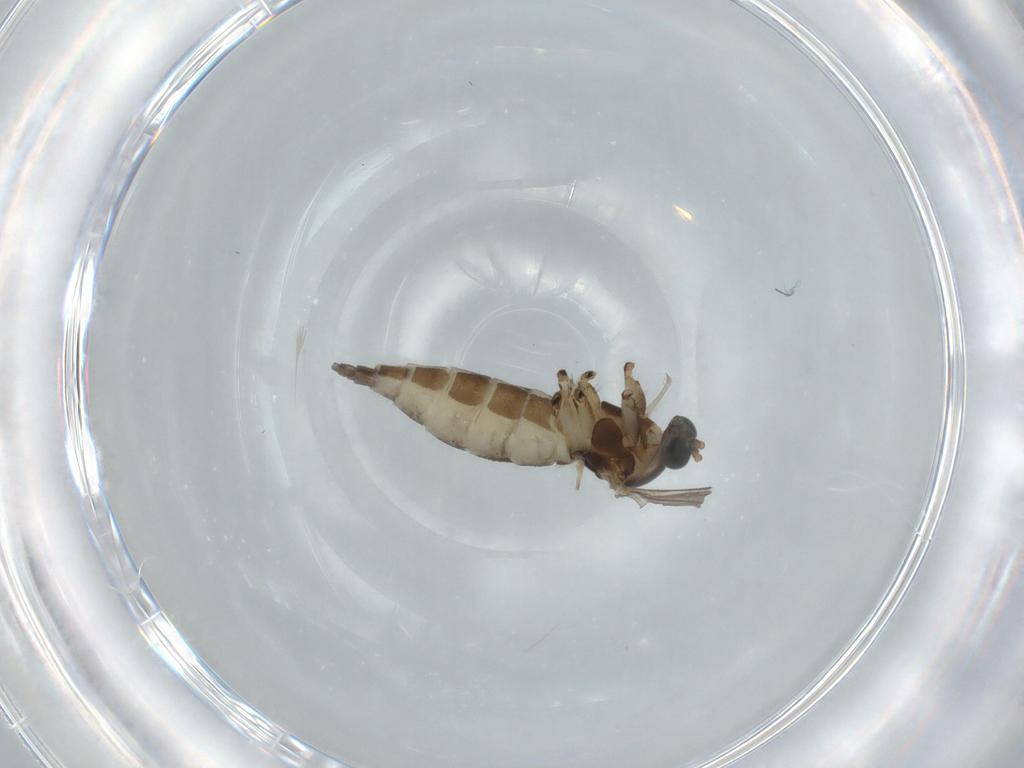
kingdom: Animalia
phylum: Arthropoda
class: Insecta
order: Diptera
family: Sciaridae
